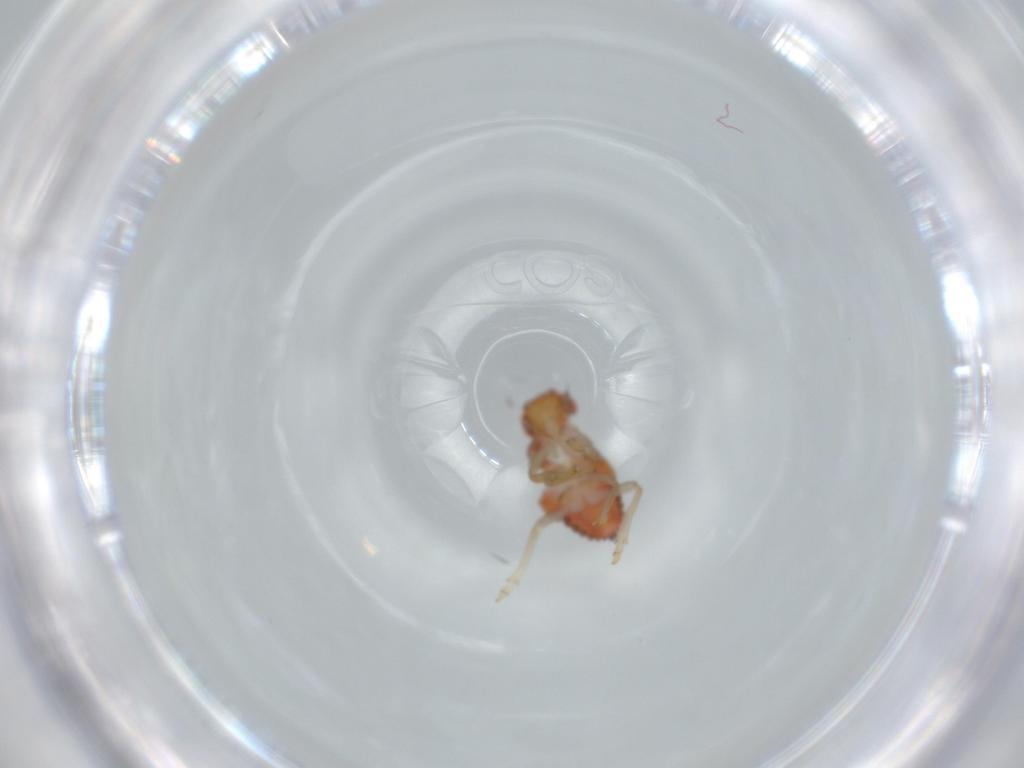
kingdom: Animalia
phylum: Arthropoda
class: Insecta
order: Hemiptera
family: Issidae
